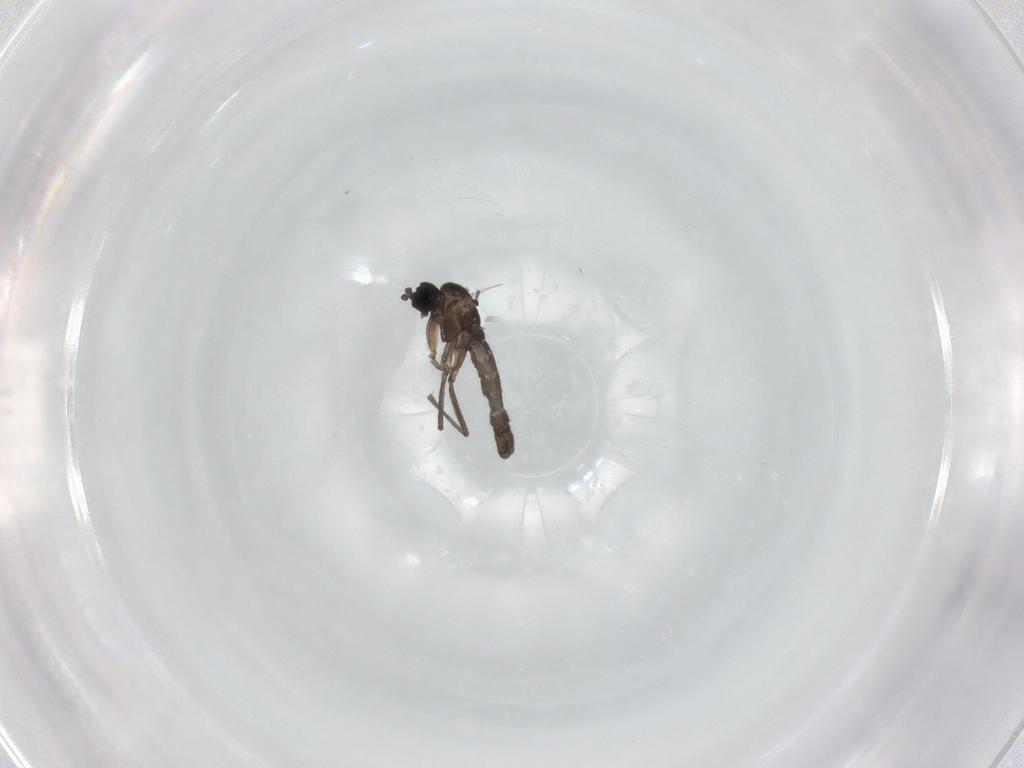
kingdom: Animalia
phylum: Arthropoda
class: Insecta
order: Diptera
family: Sciaridae
